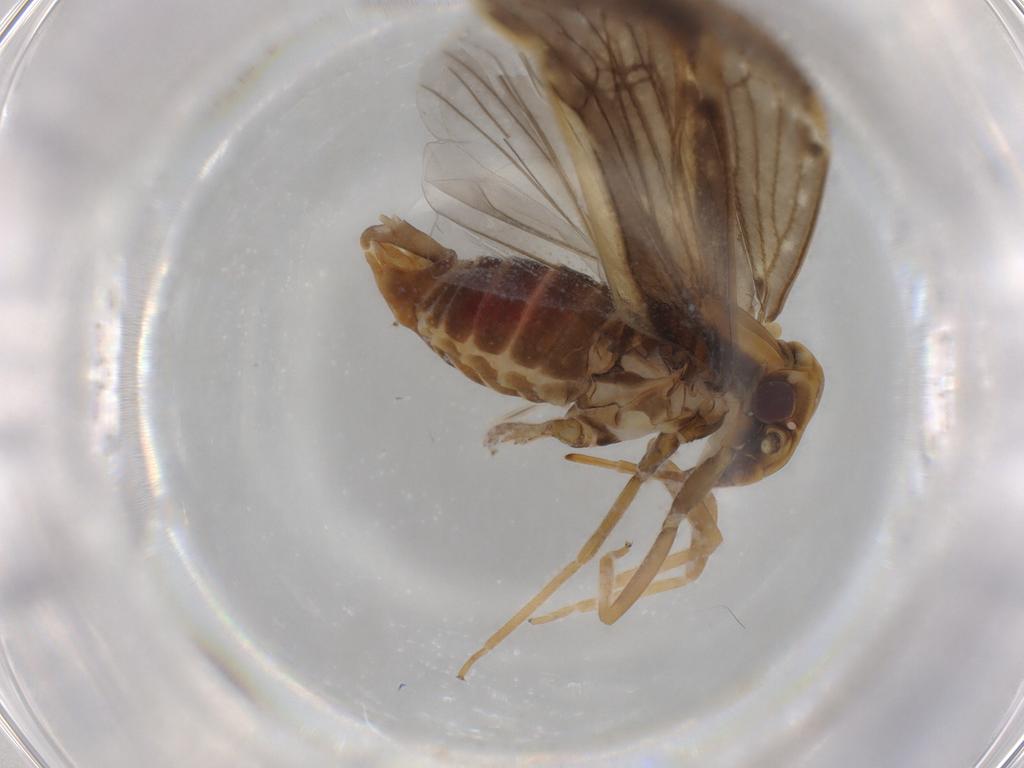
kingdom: Animalia
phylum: Arthropoda
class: Insecta
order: Hemiptera
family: Cixiidae
